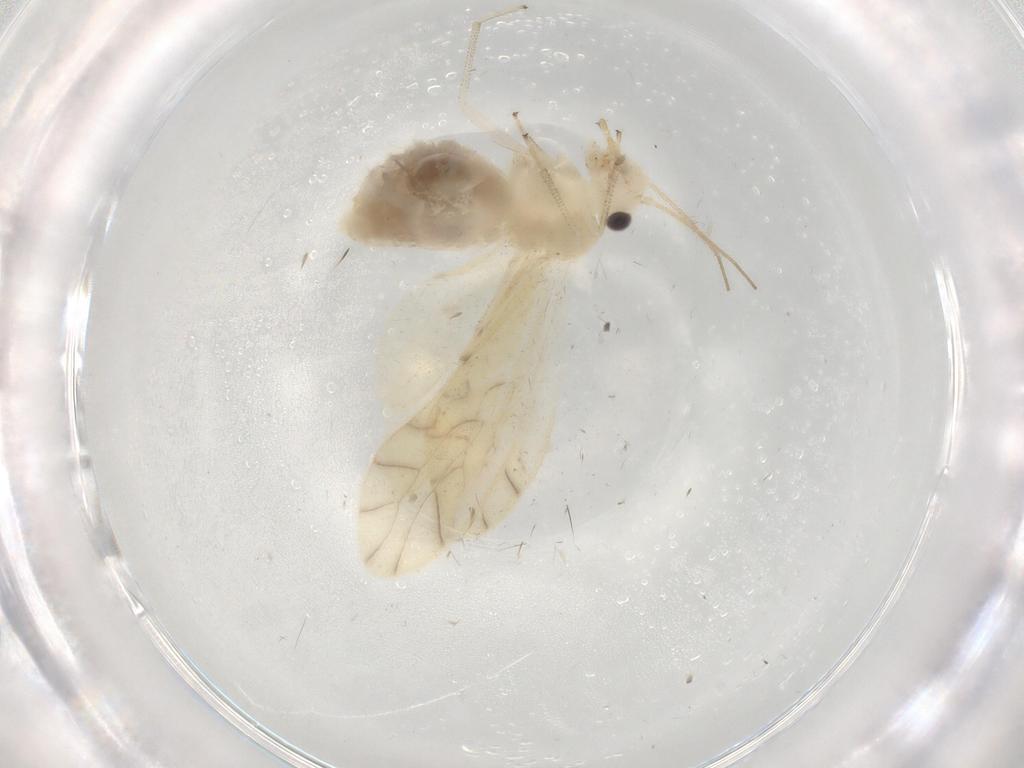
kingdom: Animalia
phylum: Arthropoda
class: Insecta
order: Psocodea
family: Caeciliusidae
